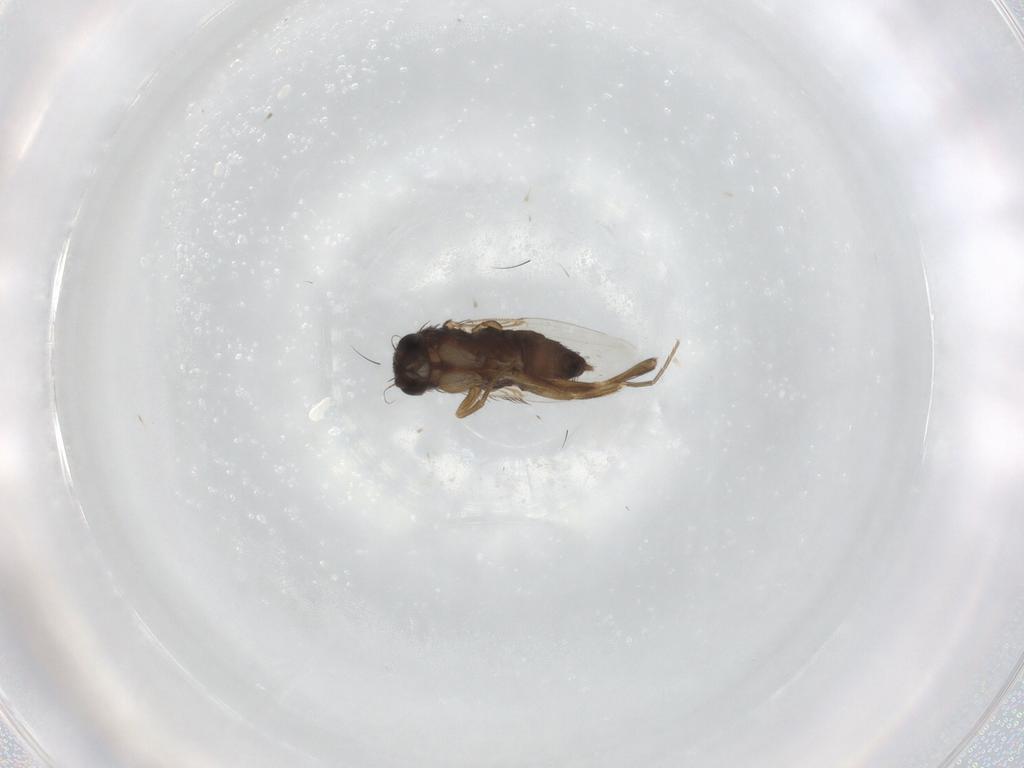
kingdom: Animalia
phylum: Arthropoda
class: Insecta
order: Diptera
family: Phoridae
